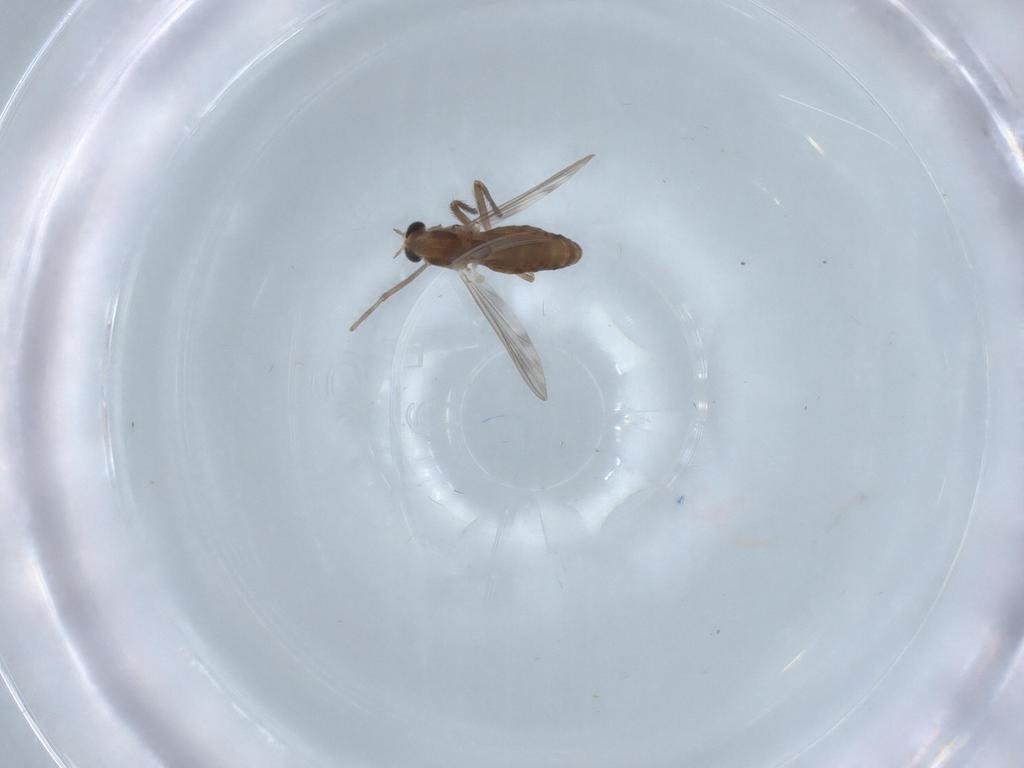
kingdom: Animalia
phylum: Arthropoda
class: Insecta
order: Diptera
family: Chironomidae
